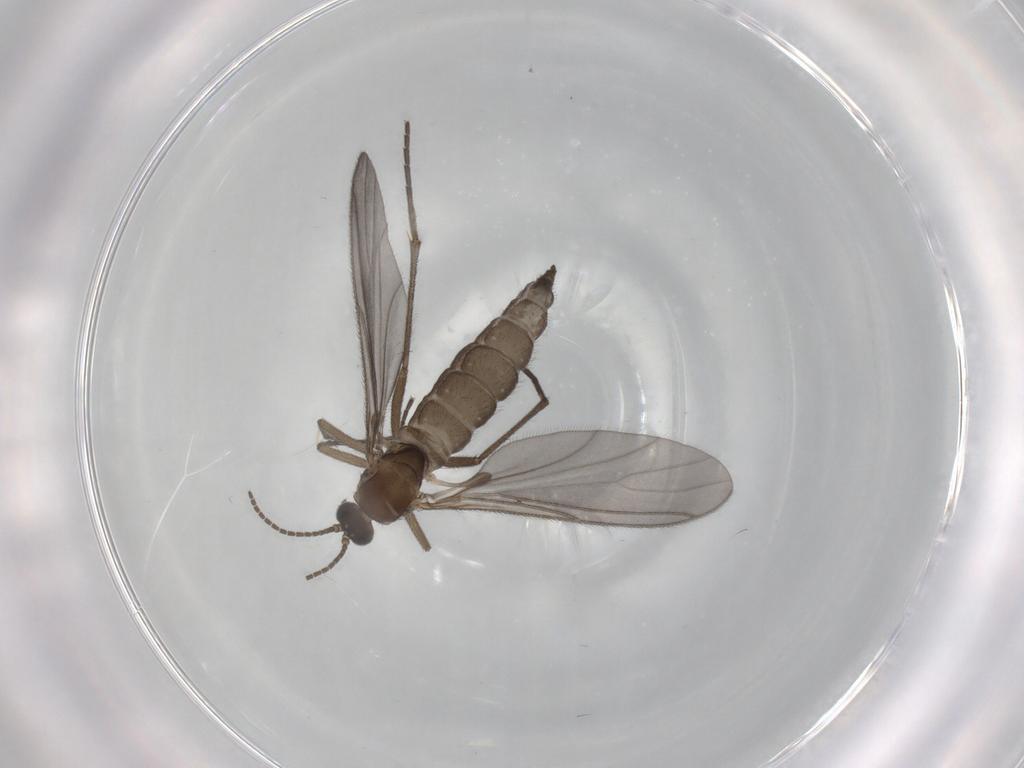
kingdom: Animalia
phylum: Arthropoda
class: Insecta
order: Diptera
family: Sciaridae
